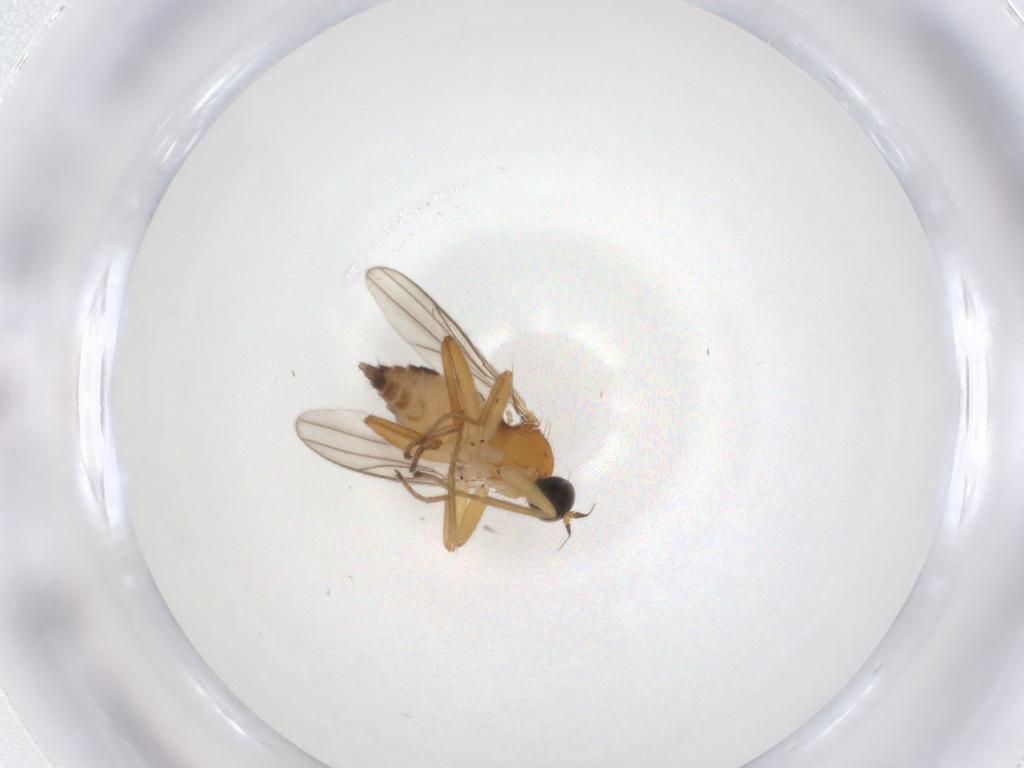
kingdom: Animalia
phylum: Arthropoda
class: Insecta
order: Diptera
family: Hybotidae
